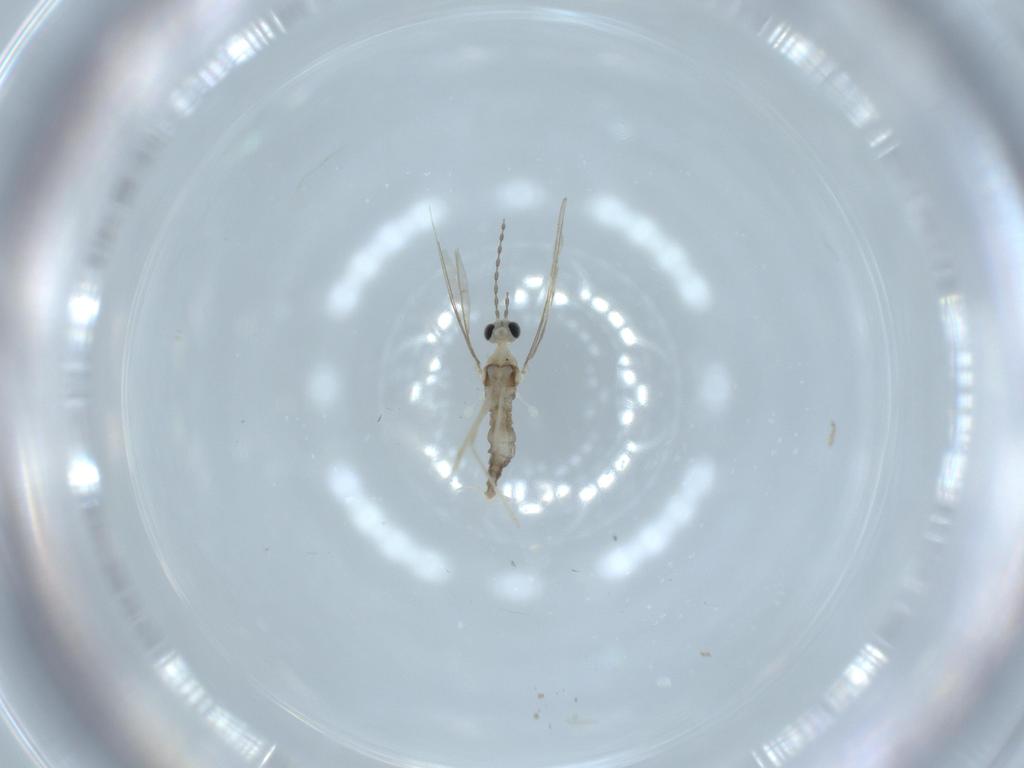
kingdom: Animalia
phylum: Arthropoda
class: Insecta
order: Diptera
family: Cecidomyiidae
